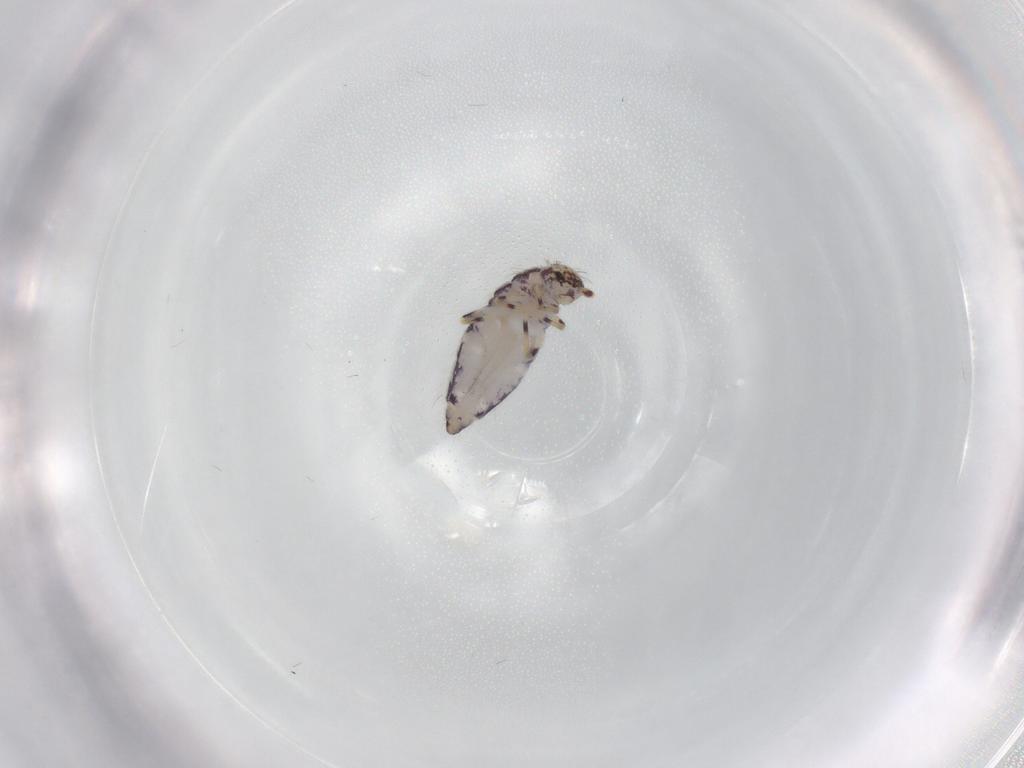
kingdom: Animalia
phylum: Arthropoda
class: Collembola
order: Entomobryomorpha
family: Entomobryidae
